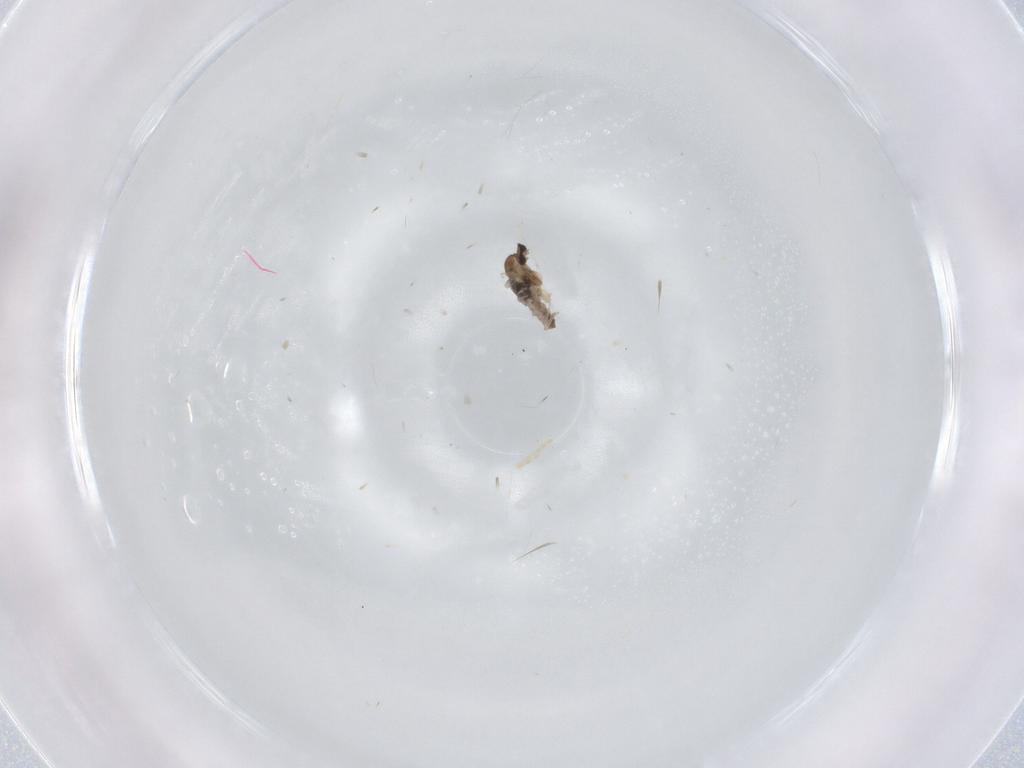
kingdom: Animalia
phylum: Arthropoda
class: Insecta
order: Diptera
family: Cecidomyiidae
